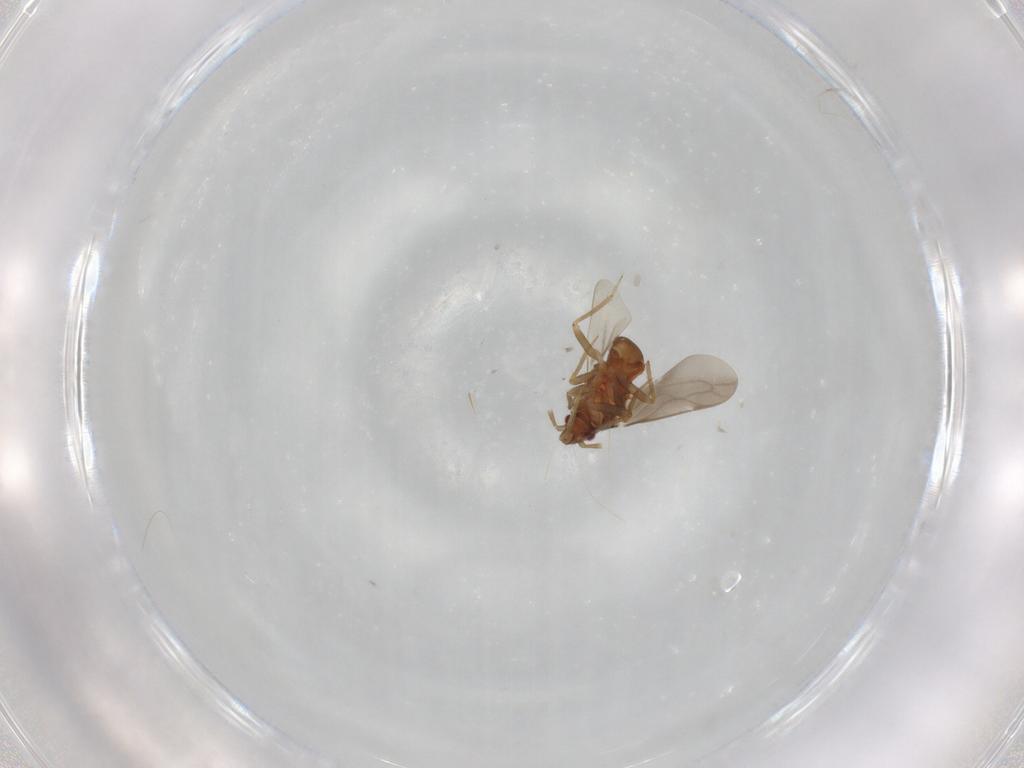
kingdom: Animalia
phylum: Arthropoda
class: Insecta
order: Hemiptera
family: Ceratocombidae
